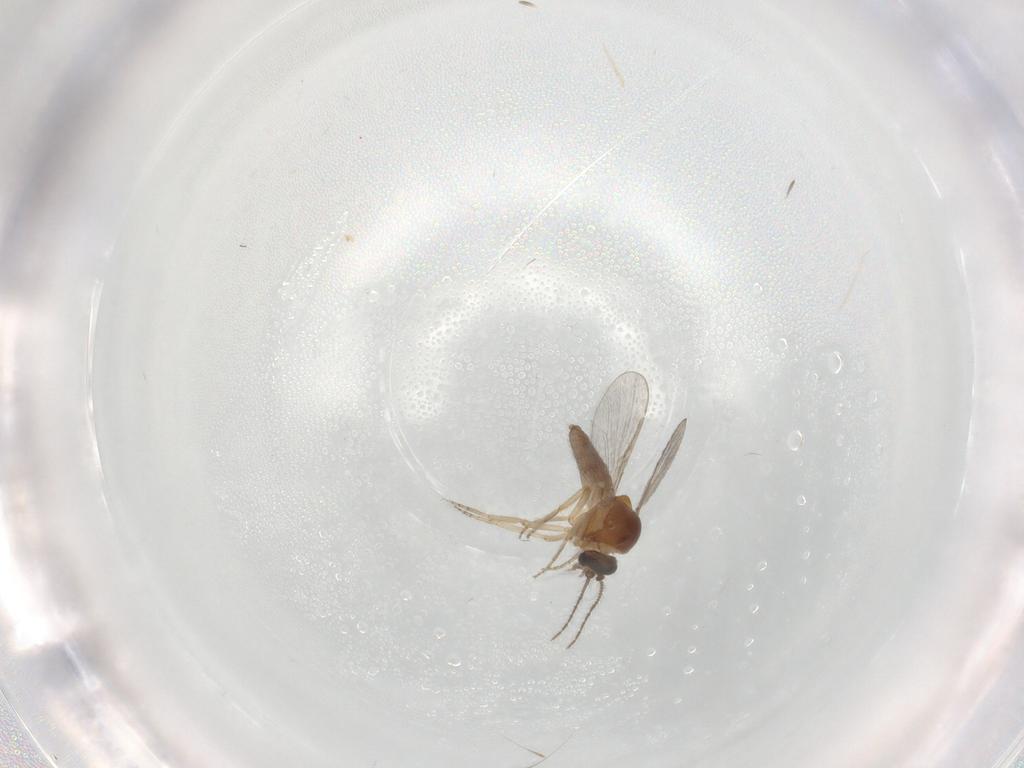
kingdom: Animalia
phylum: Arthropoda
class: Insecta
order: Diptera
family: Ceratopogonidae
